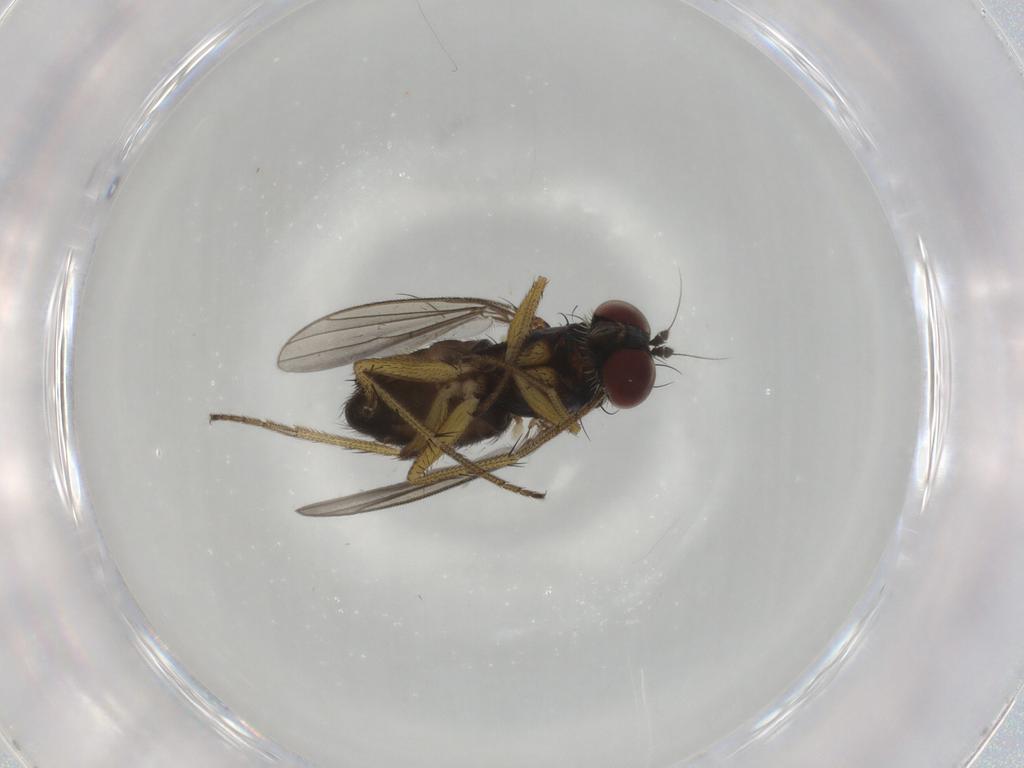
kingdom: Animalia
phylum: Arthropoda
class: Insecta
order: Diptera
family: Dolichopodidae
